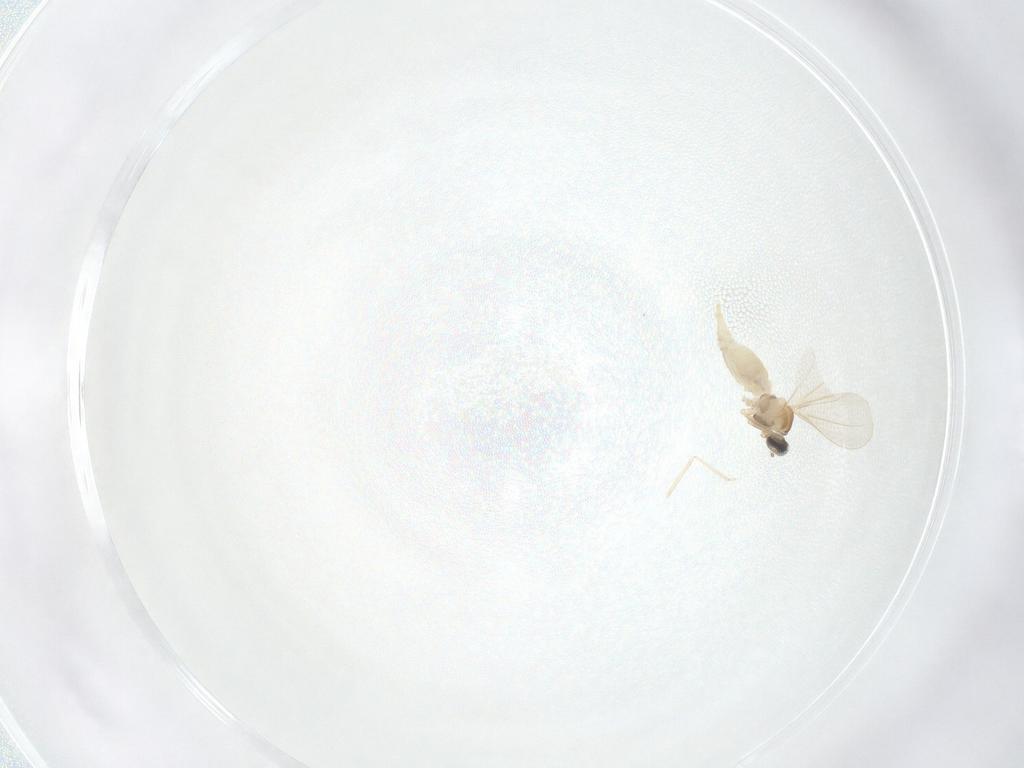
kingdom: Animalia
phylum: Arthropoda
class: Insecta
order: Diptera
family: Cecidomyiidae
